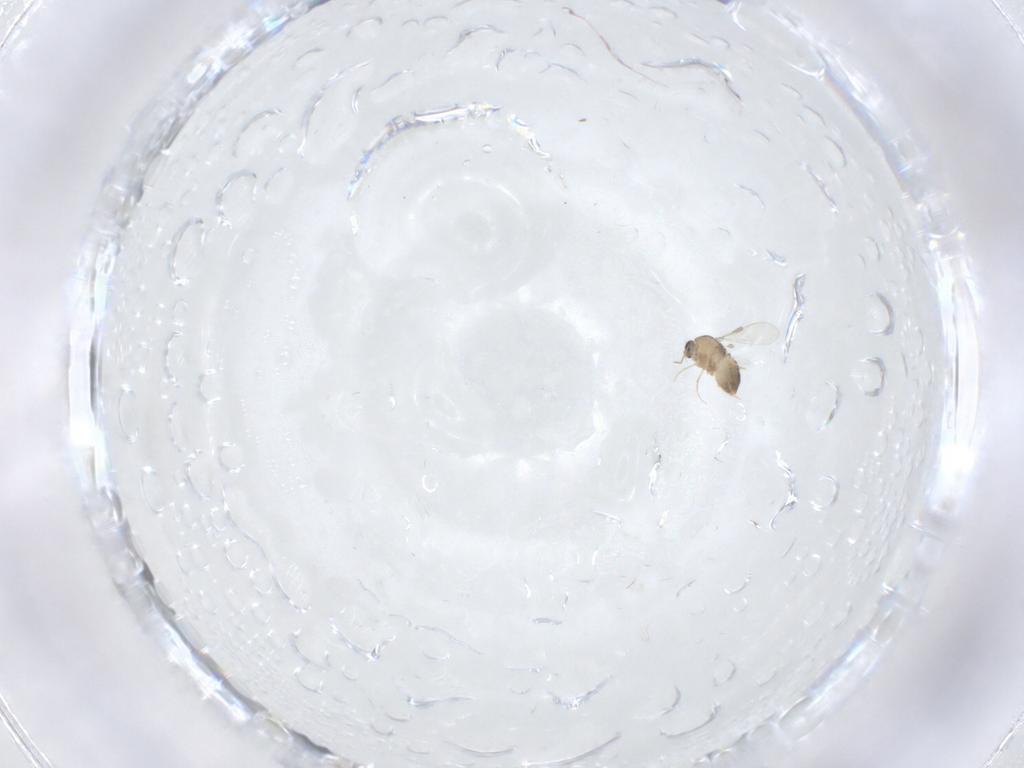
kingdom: Animalia
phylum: Arthropoda
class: Insecta
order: Diptera
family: Chironomidae
